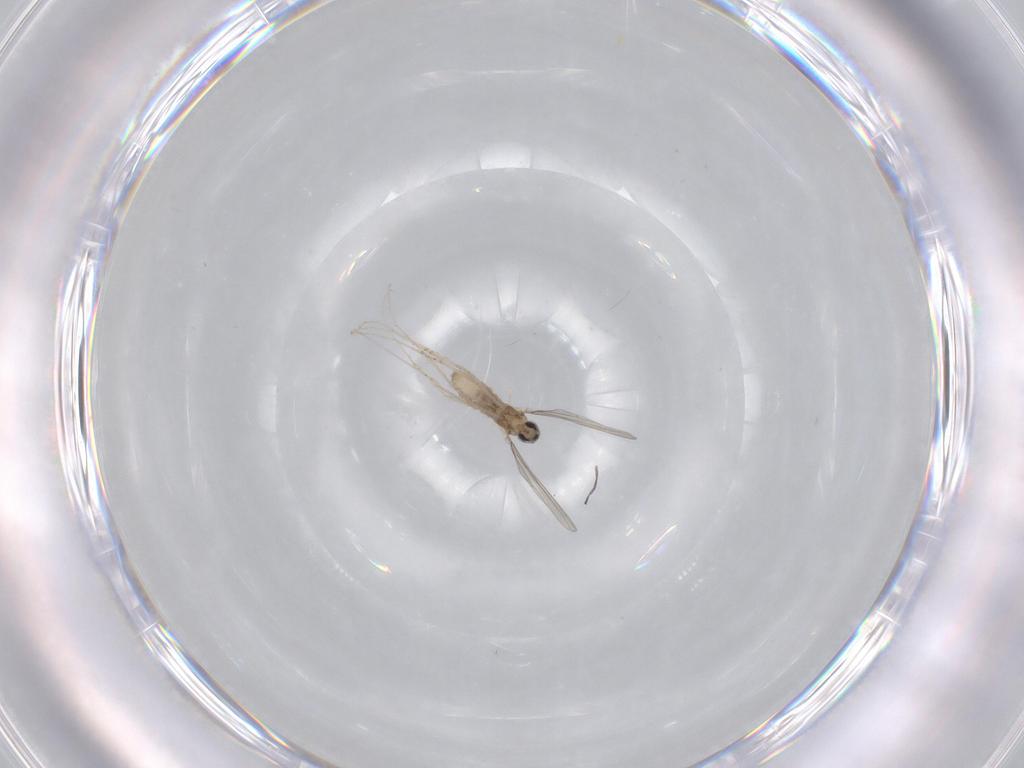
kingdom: Animalia
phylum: Arthropoda
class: Insecta
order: Diptera
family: Cecidomyiidae
